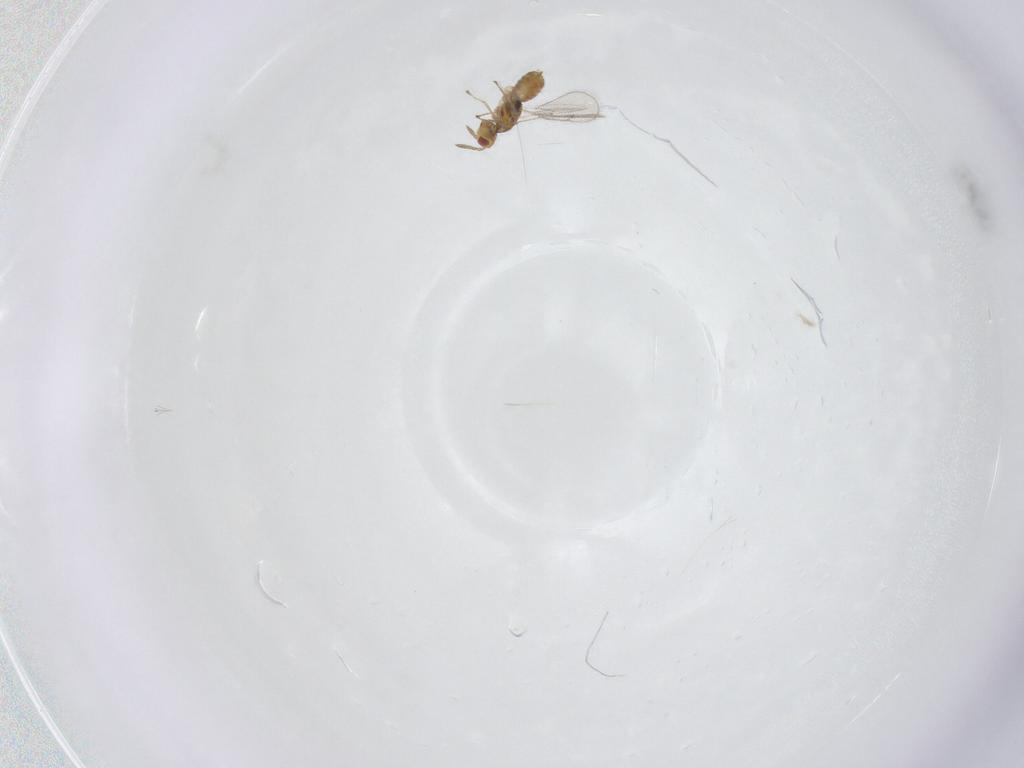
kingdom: Animalia
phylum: Arthropoda
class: Insecta
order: Hymenoptera
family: Eulophidae
